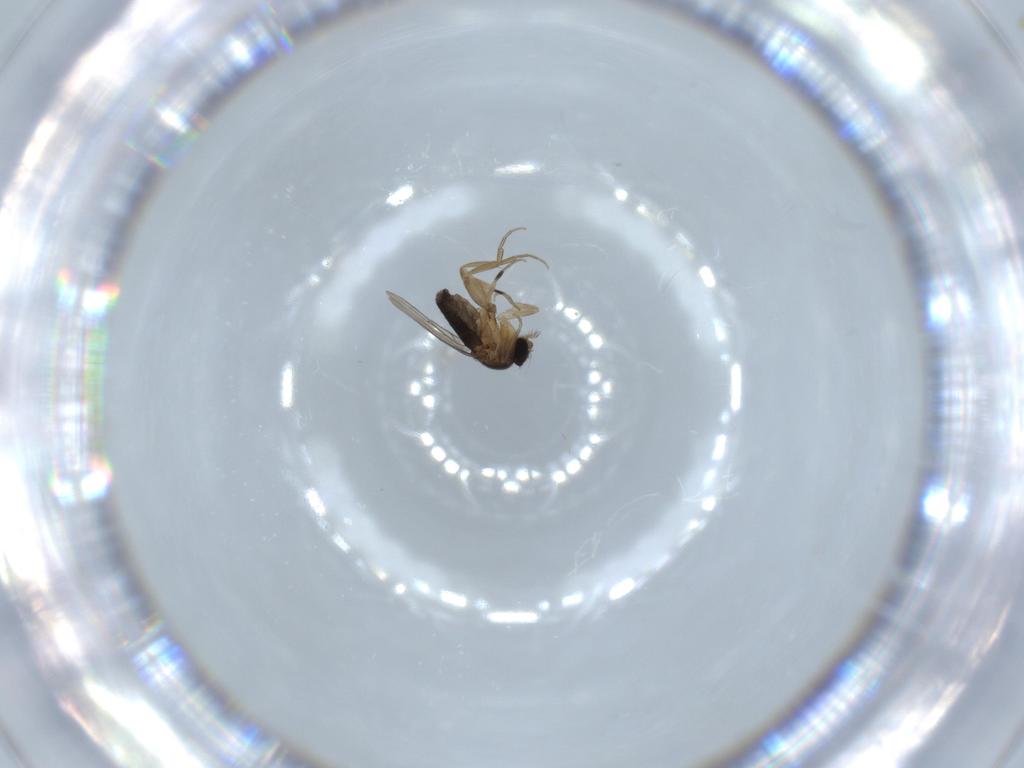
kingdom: Animalia
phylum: Arthropoda
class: Insecta
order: Diptera
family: Phoridae
